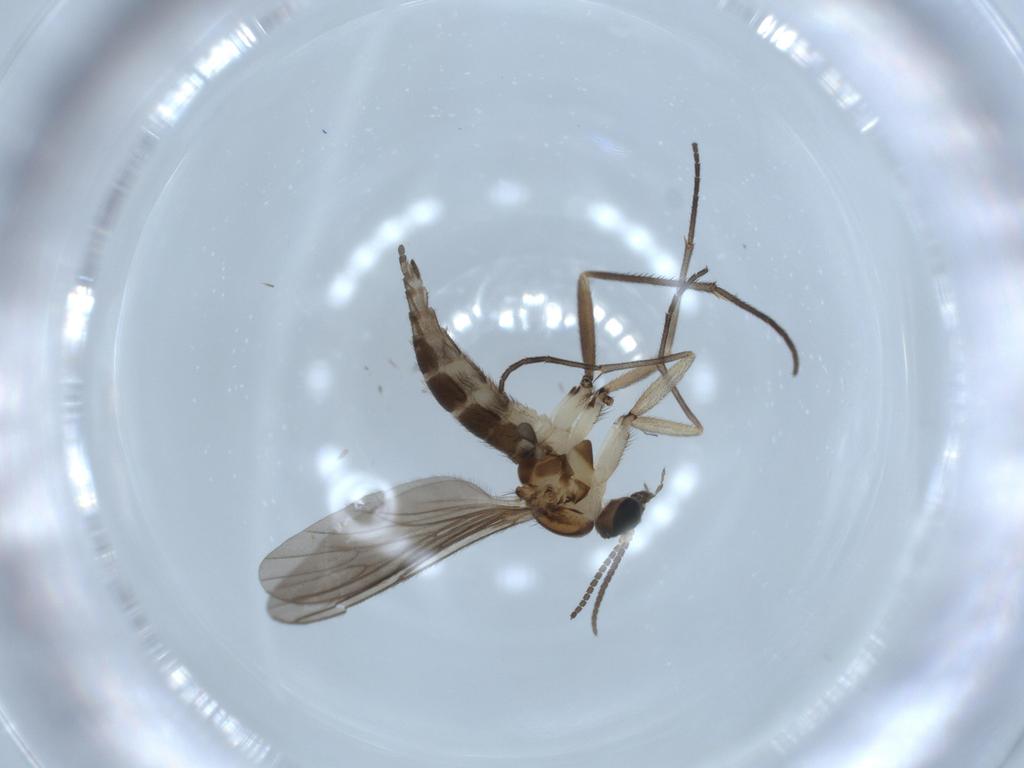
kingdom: Animalia
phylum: Arthropoda
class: Insecta
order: Diptera
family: Sciaridae
